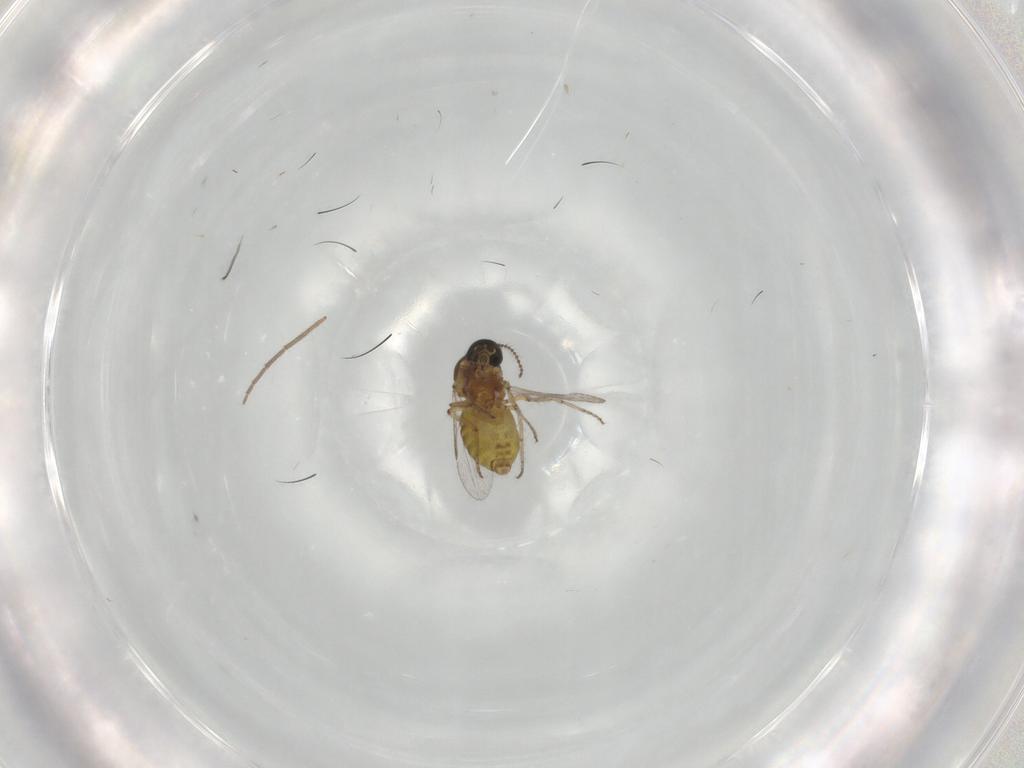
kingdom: Animalia
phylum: Arthropoda
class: Insecta
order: Diptera
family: Ceratopogonidae
